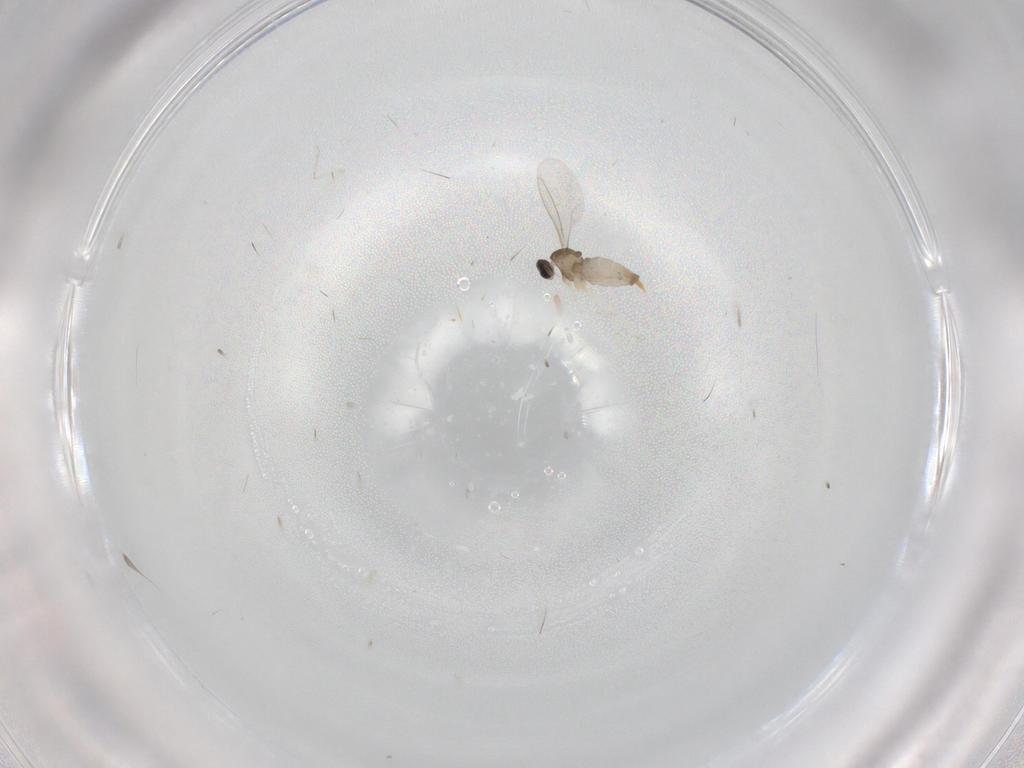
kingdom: Animalia
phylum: Arthropoda
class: Insecta
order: Diptera
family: Cecidomyiidae
